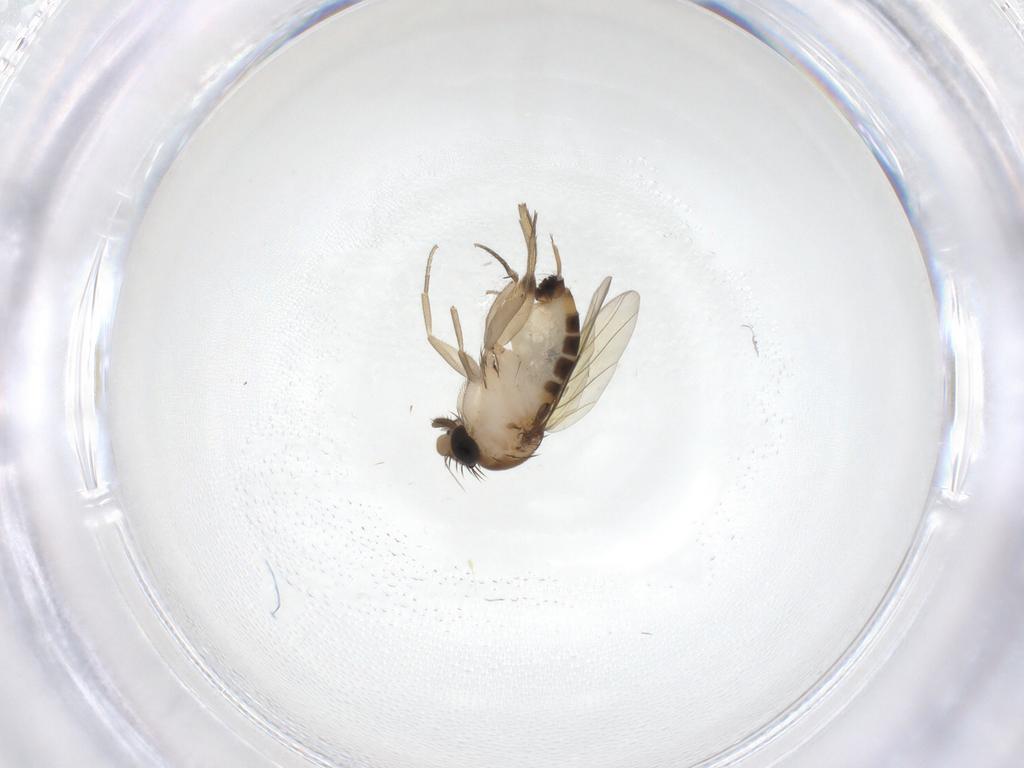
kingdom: Animalia
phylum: Arthropoda
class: Insecta
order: Diptera
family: Phoridae
